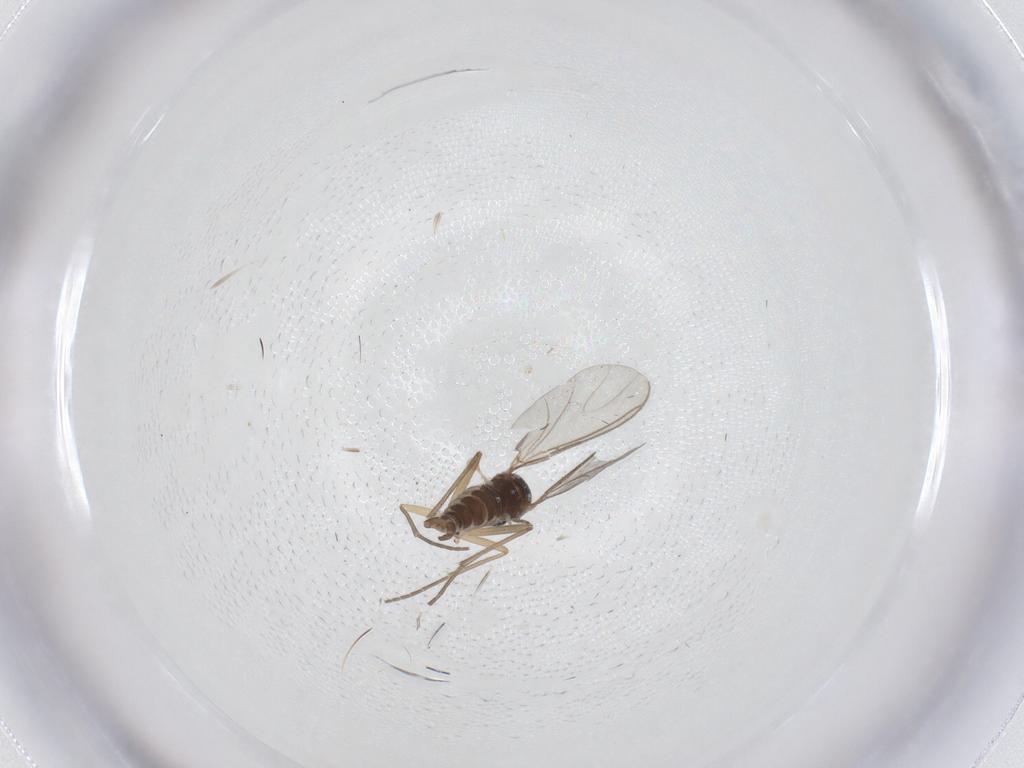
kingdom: Animalia
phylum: Arthropoda
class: Insecta
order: Diptera
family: Sciaridae
